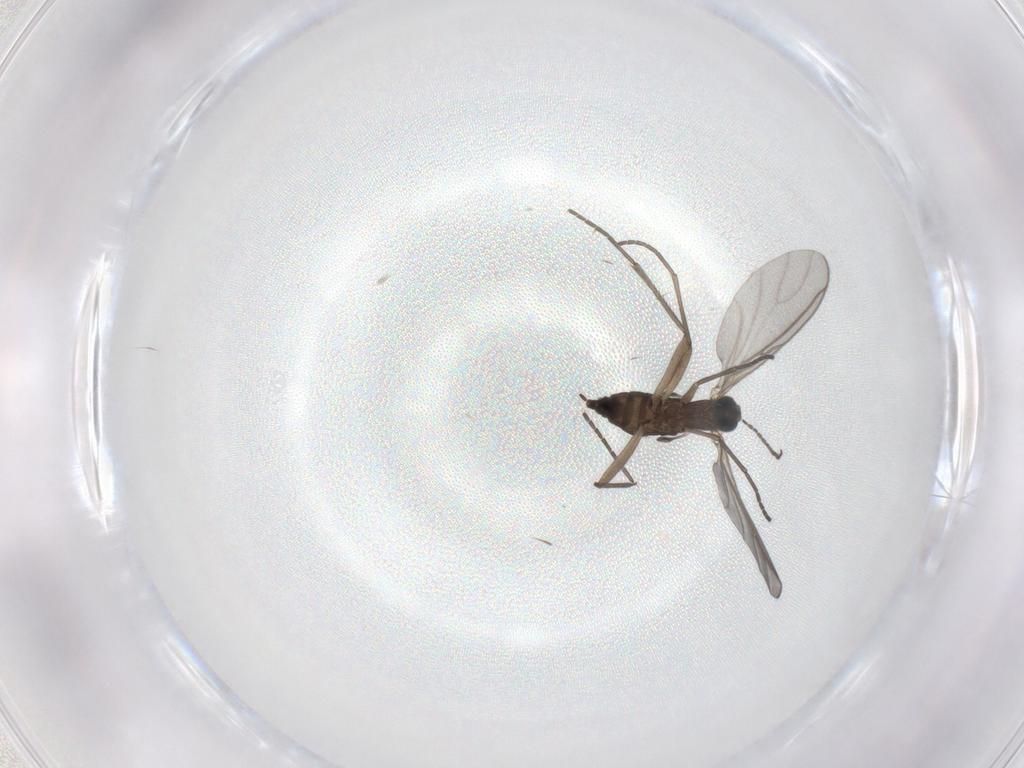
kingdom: Animalia
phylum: Arthropoda
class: Insecta
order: Diptera
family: Sciaridae
